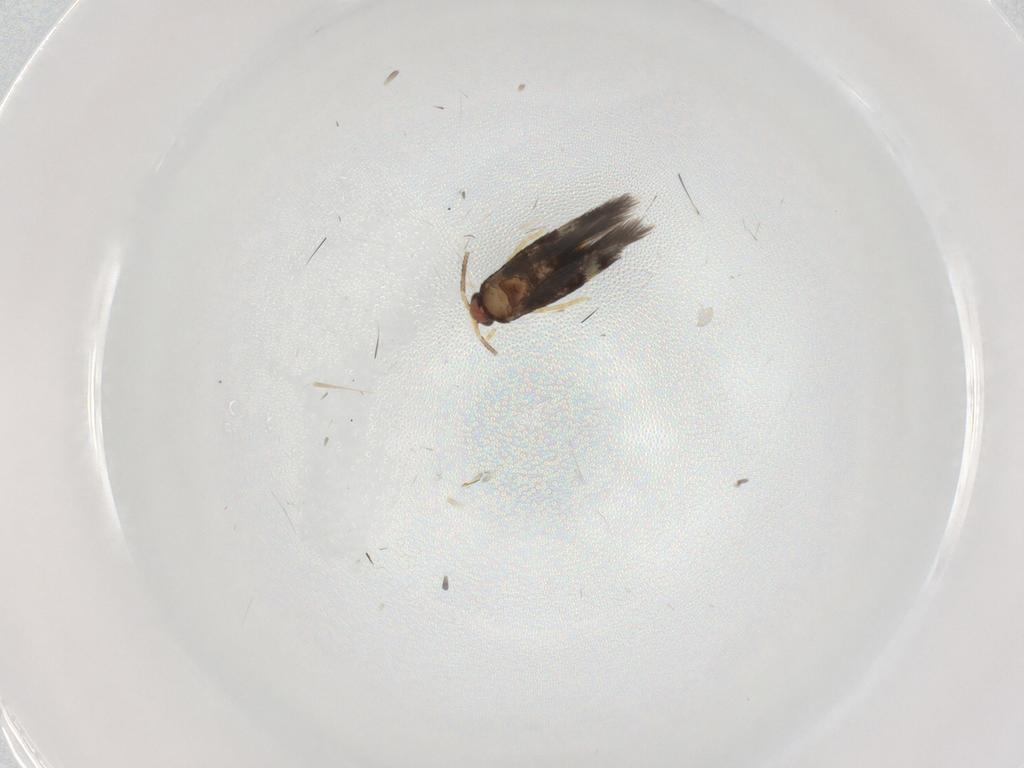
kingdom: Animalia
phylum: Arthropoda
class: Insecta
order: Lepidoptera
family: Nepticulidae
